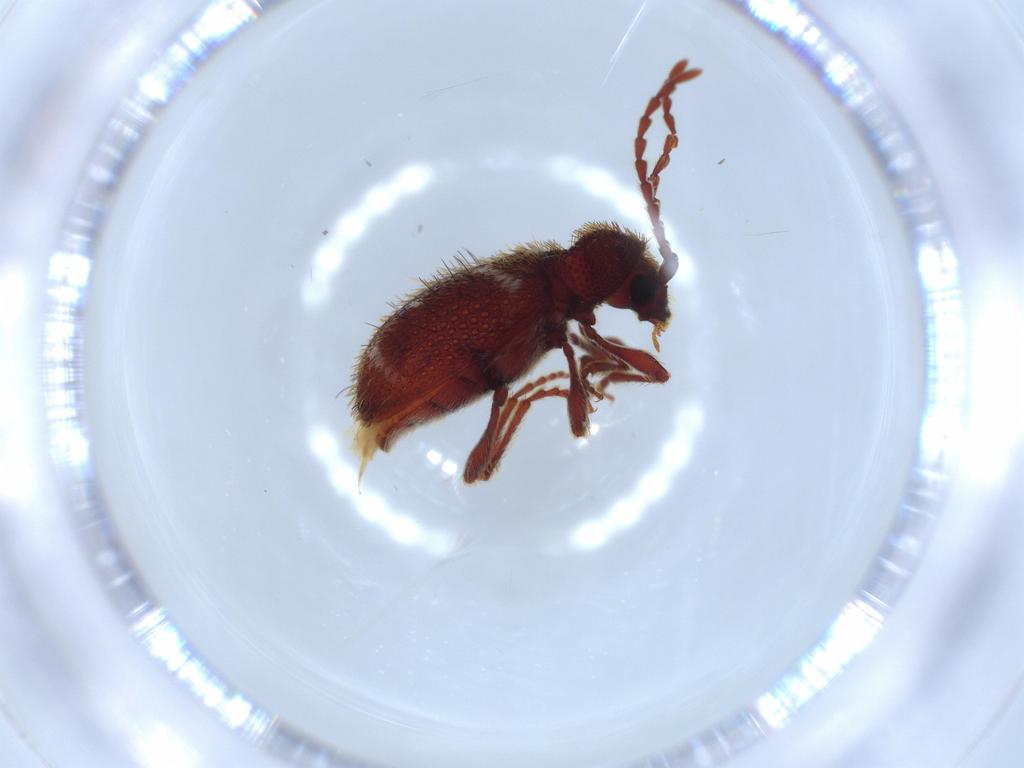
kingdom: Animalia
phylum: Arthropoda
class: Insecta
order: Coleoptera
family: Ptinidae
